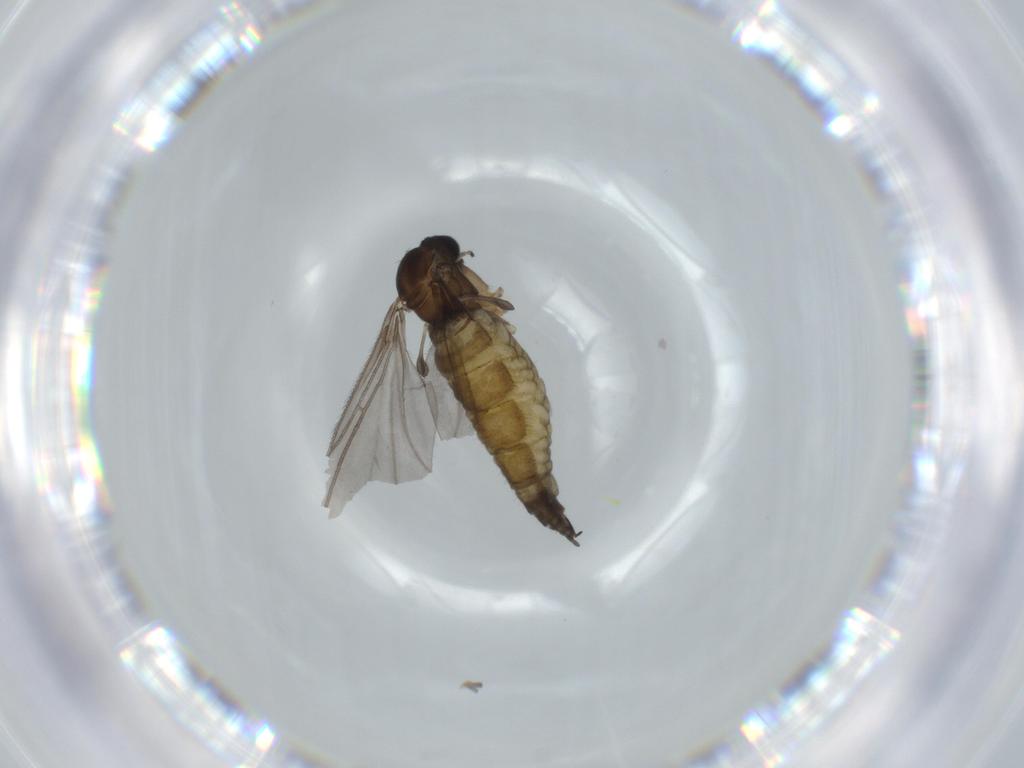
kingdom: Animalia
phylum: Arthropoda
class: Insecta
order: Diptera
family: Sciaridae
